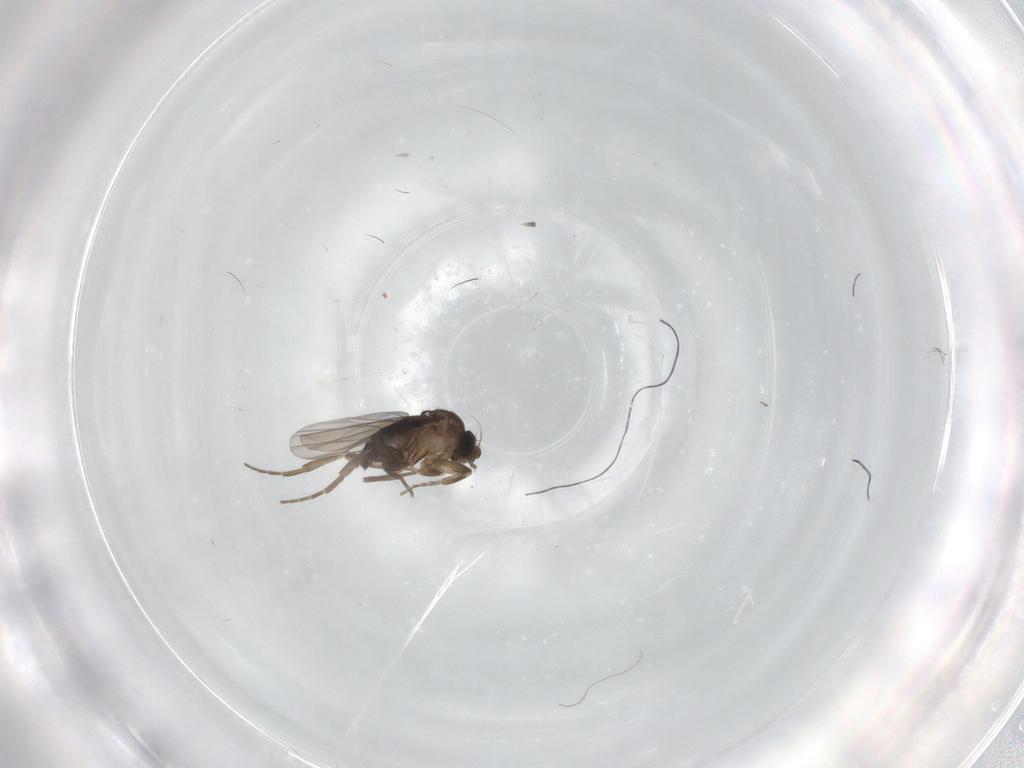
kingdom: Animalia
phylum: Arthropoda
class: Insecta
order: Diptera
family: Phoridae
